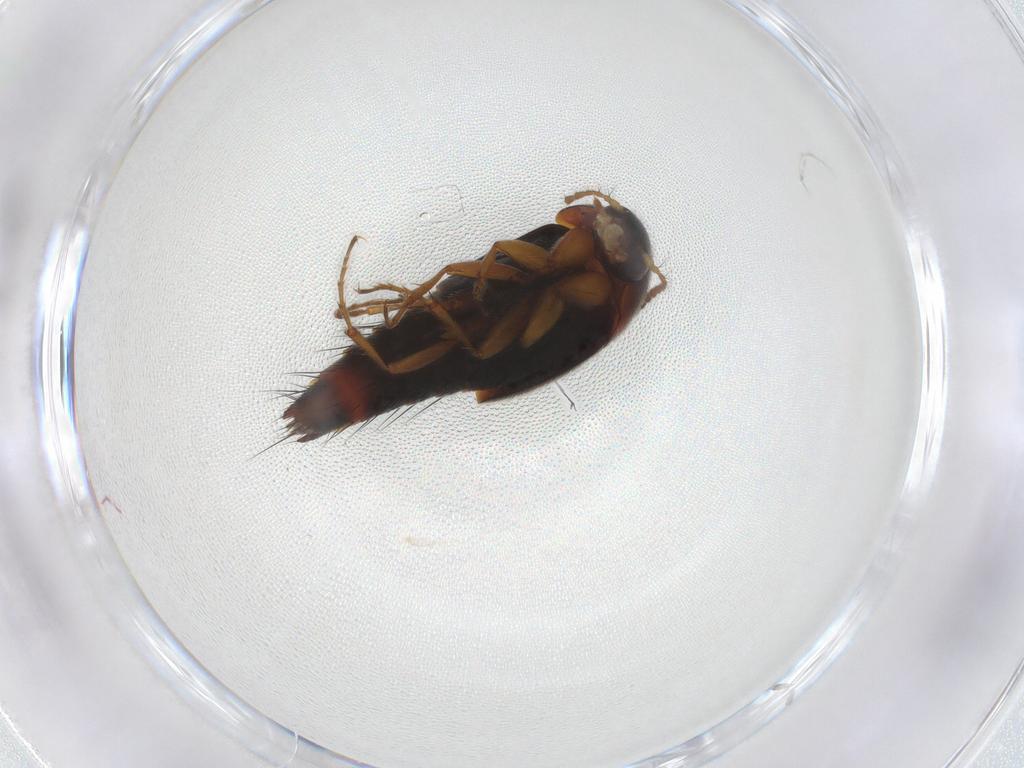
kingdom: Animalia
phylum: Arthropoda
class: Insecta
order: Coleoptera
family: Staphylinidae
